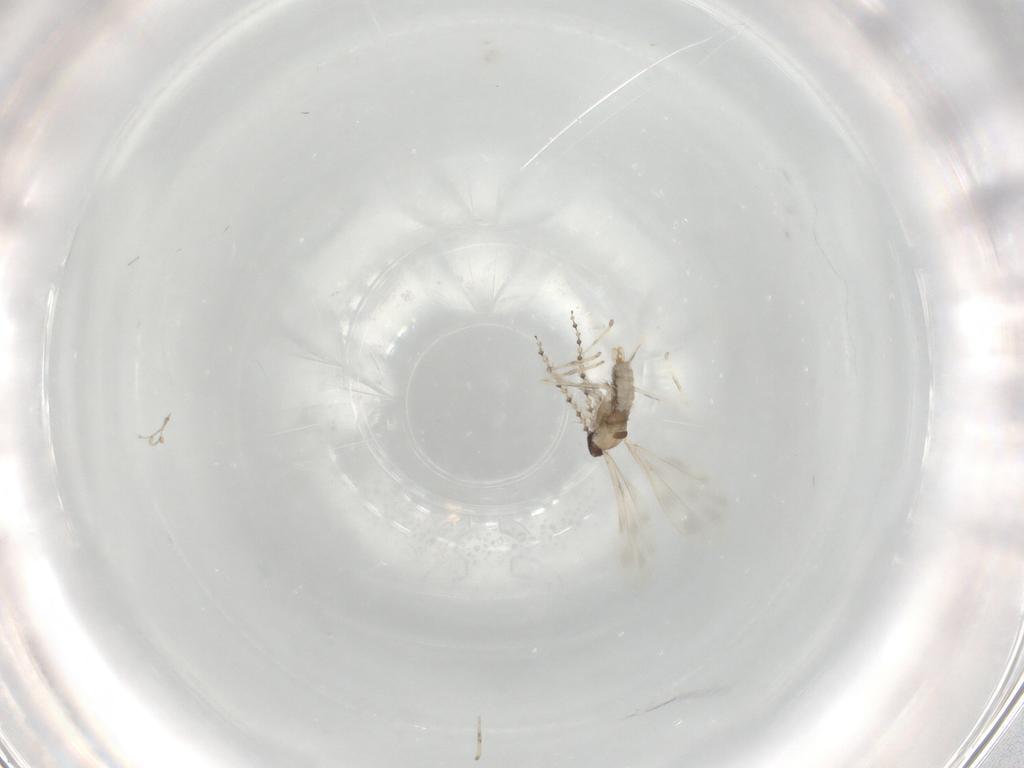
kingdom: Animalia
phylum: Arthropoda
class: Insecta
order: Diptera
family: Cecidomyiidae
